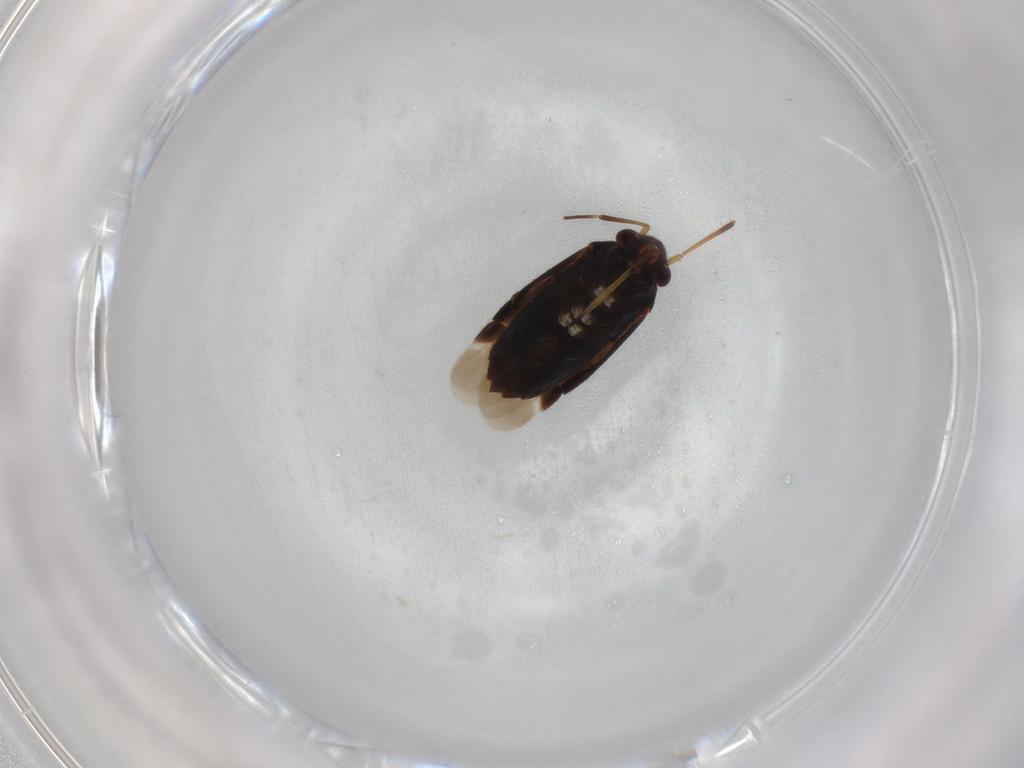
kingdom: Animalia
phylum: Arthropoda
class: Insecta
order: Hemiptera
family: Miridae
